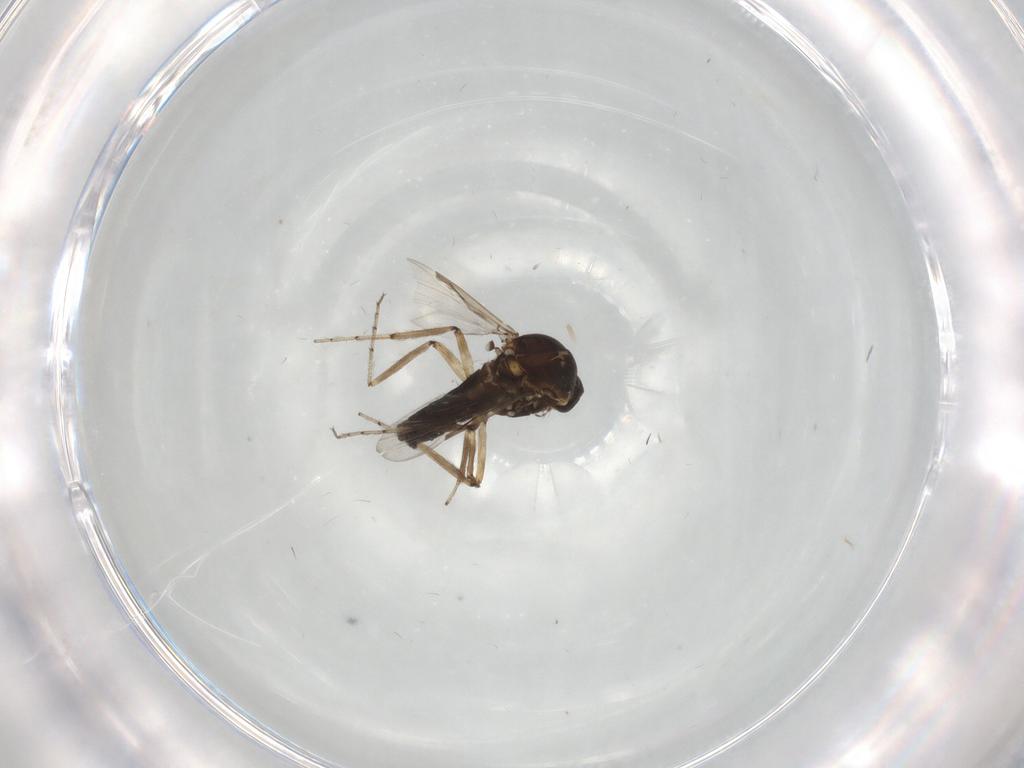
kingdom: Animalia
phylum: Arthropoda
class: Insecta
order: Diptera
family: Ceratopogonidae
